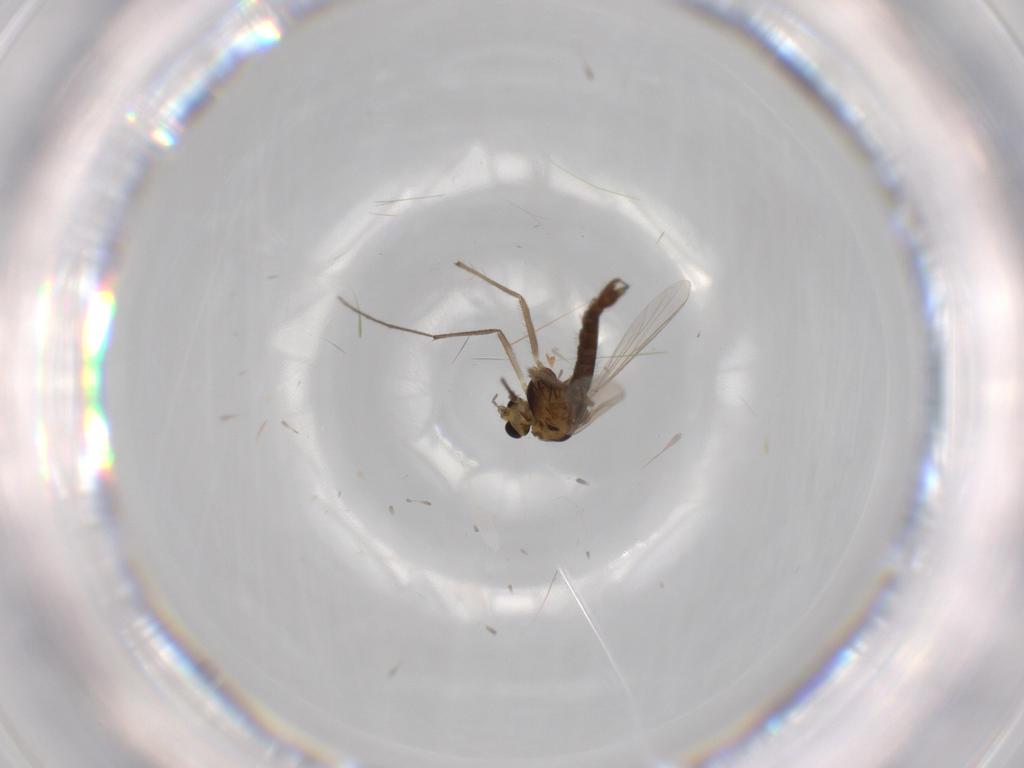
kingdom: Animalia
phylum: Arthropoda
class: Insecta
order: Diptera
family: Chironomidae
